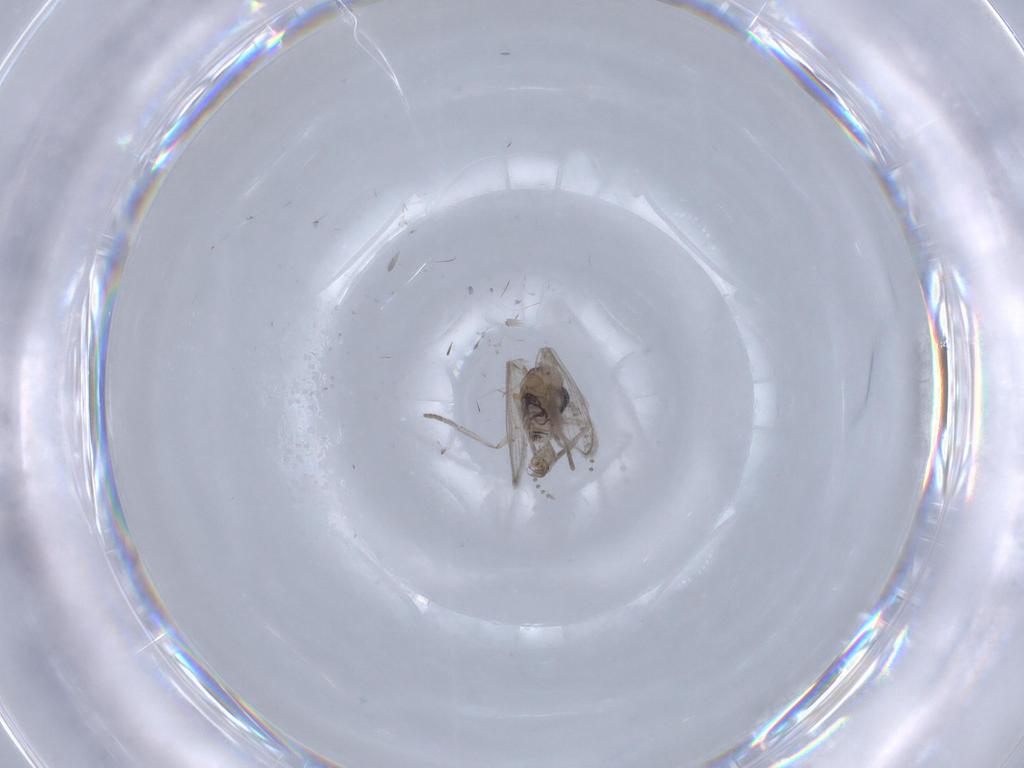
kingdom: Animalia
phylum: Arthropoda
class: Insecta
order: Diptera
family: Psychodidae
